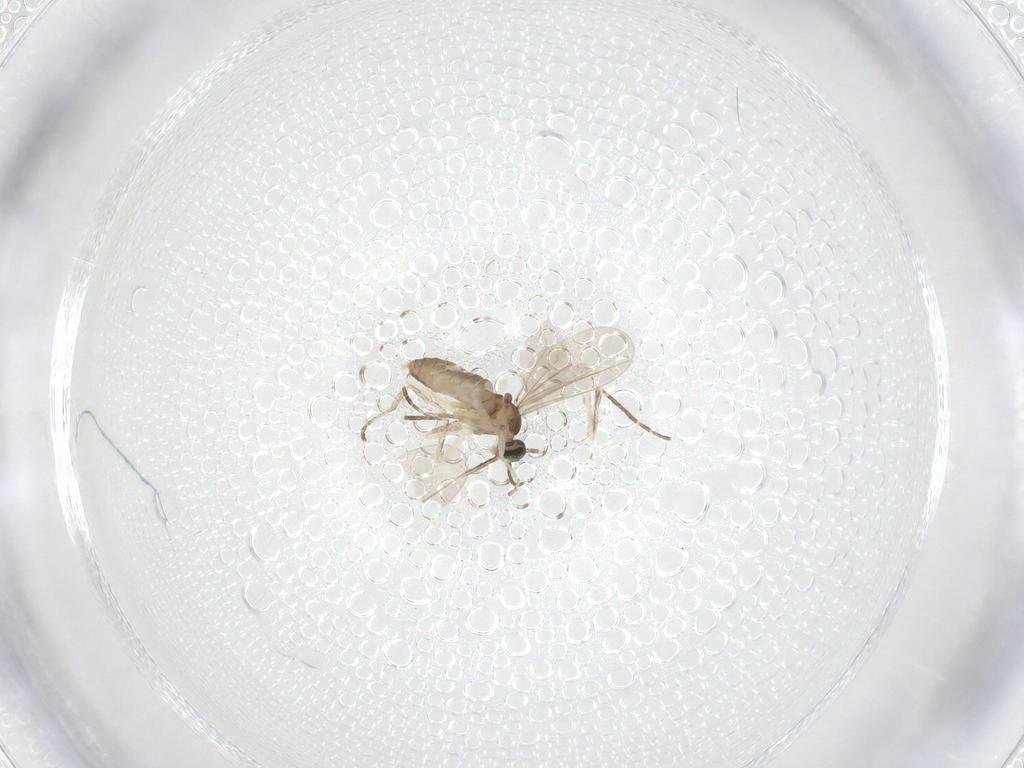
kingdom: Animalia
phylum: Arthropoda
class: Insecta
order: Diptera
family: Cecidomyiidae
